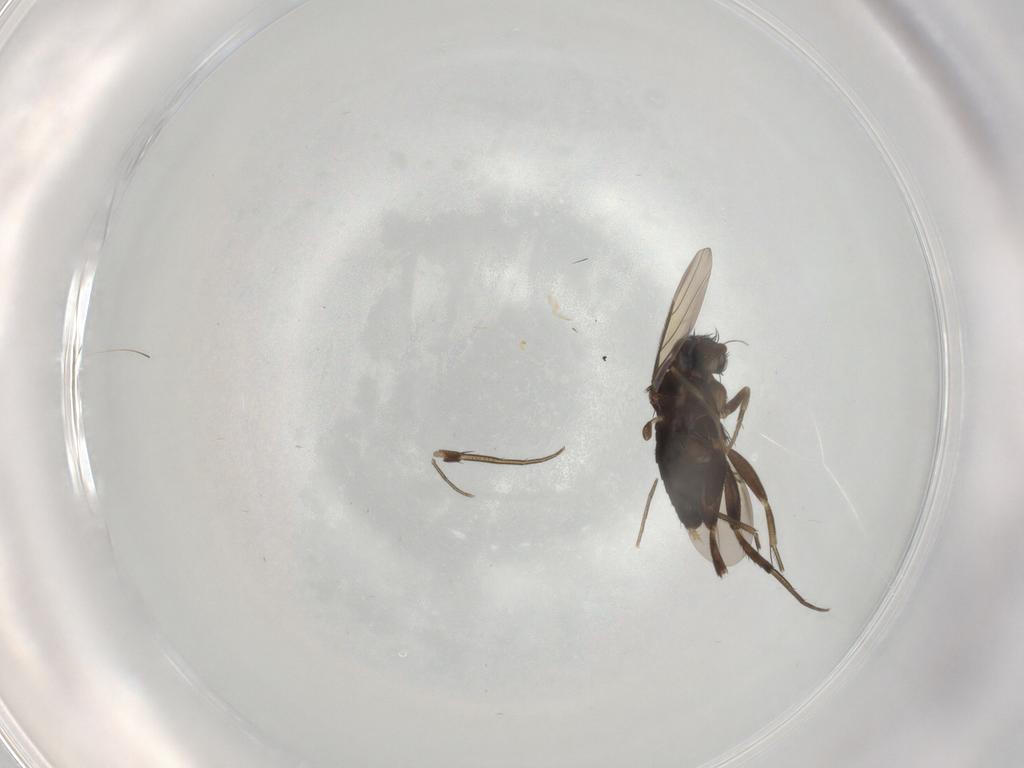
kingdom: Animalia
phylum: Arthropoda
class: Insecta
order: Diptera
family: Phoridae
